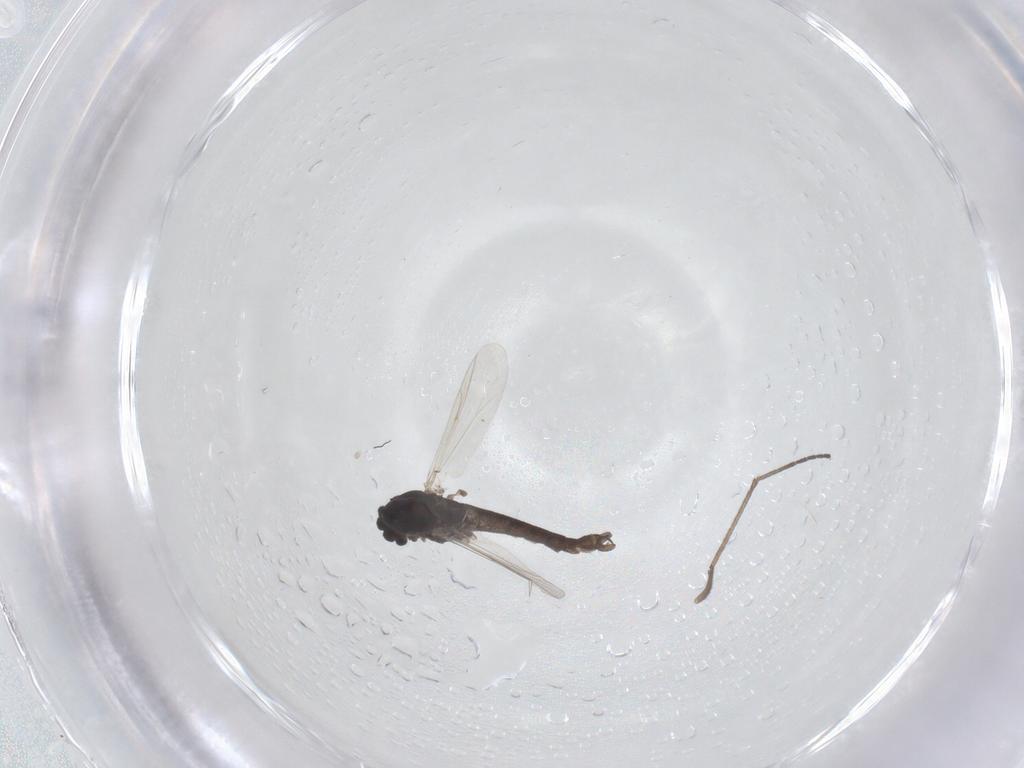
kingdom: Animalia
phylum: Arthropoda
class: Insecta
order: Diptera
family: Chironomidae
